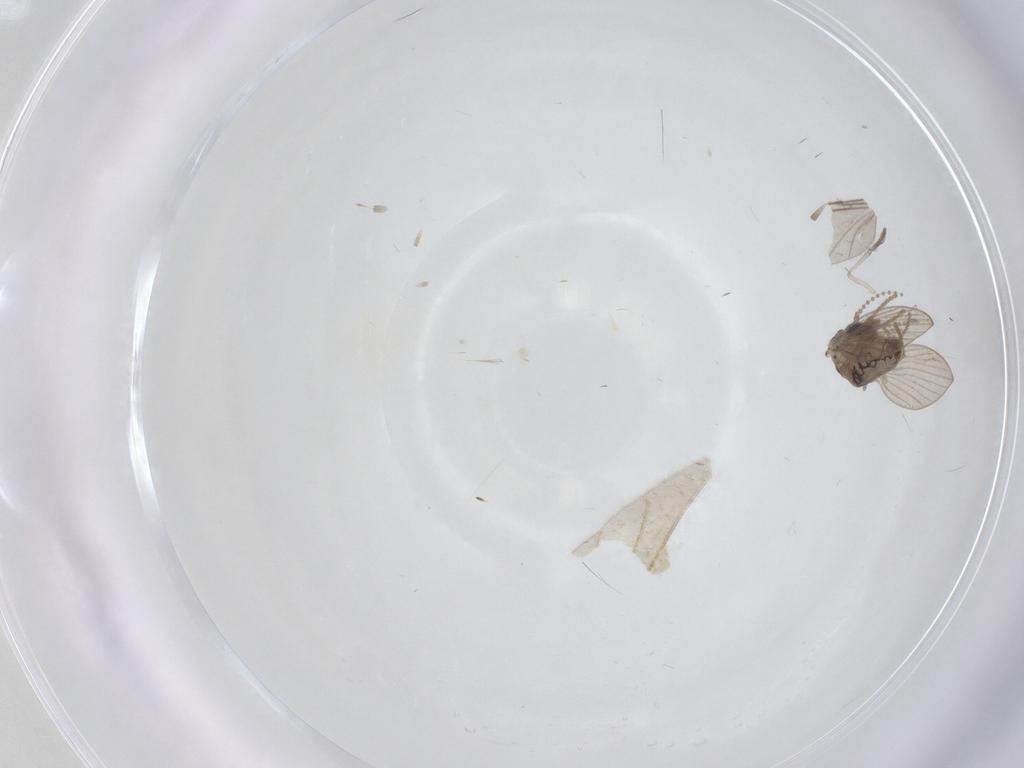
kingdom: Animalia
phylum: Arthropoda
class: Insecta
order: Diptera
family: Psychodidae
